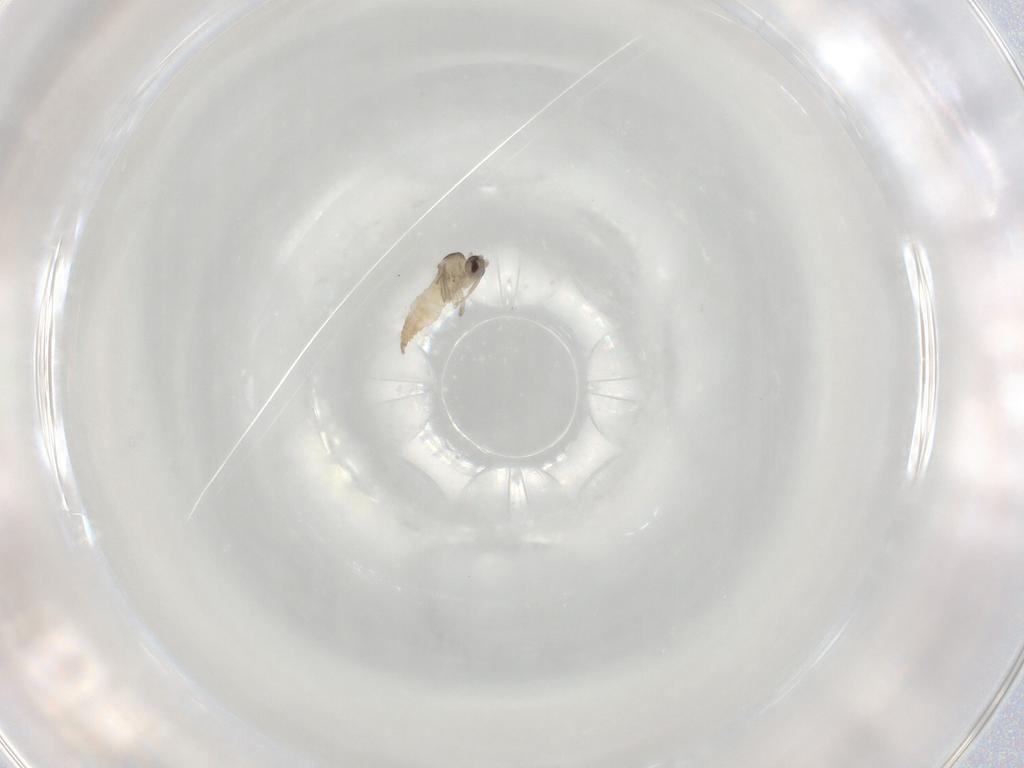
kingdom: Animalia
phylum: Arthropoda
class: Insecta
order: Diptera
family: Cecidomyiidae
